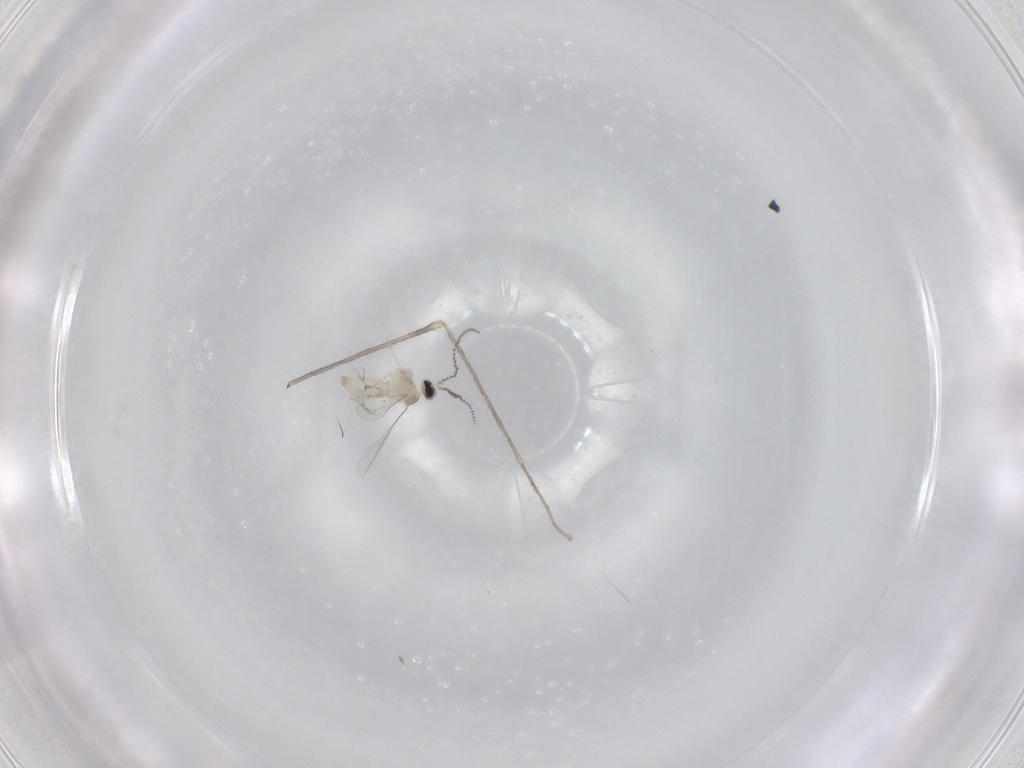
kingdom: Animalia
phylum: Arthropoda
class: Insecta
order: Diptera
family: Limoniidae
